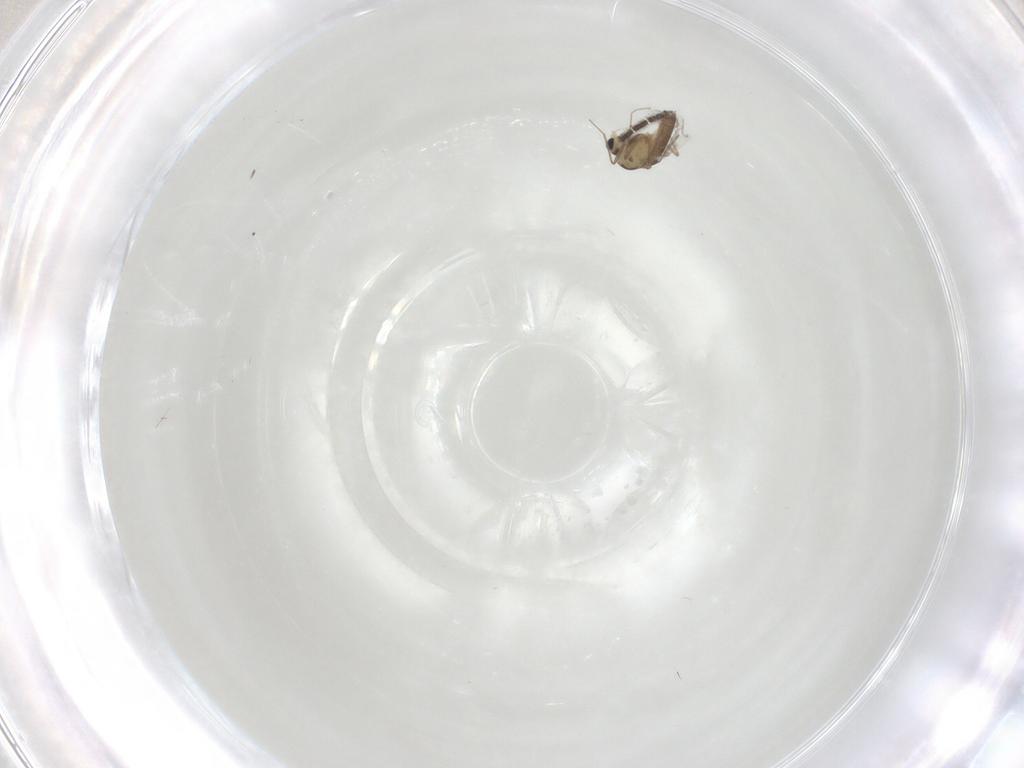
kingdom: Animalia
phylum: Arthropoda
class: Insecta
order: Diptera
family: Chironomidae
